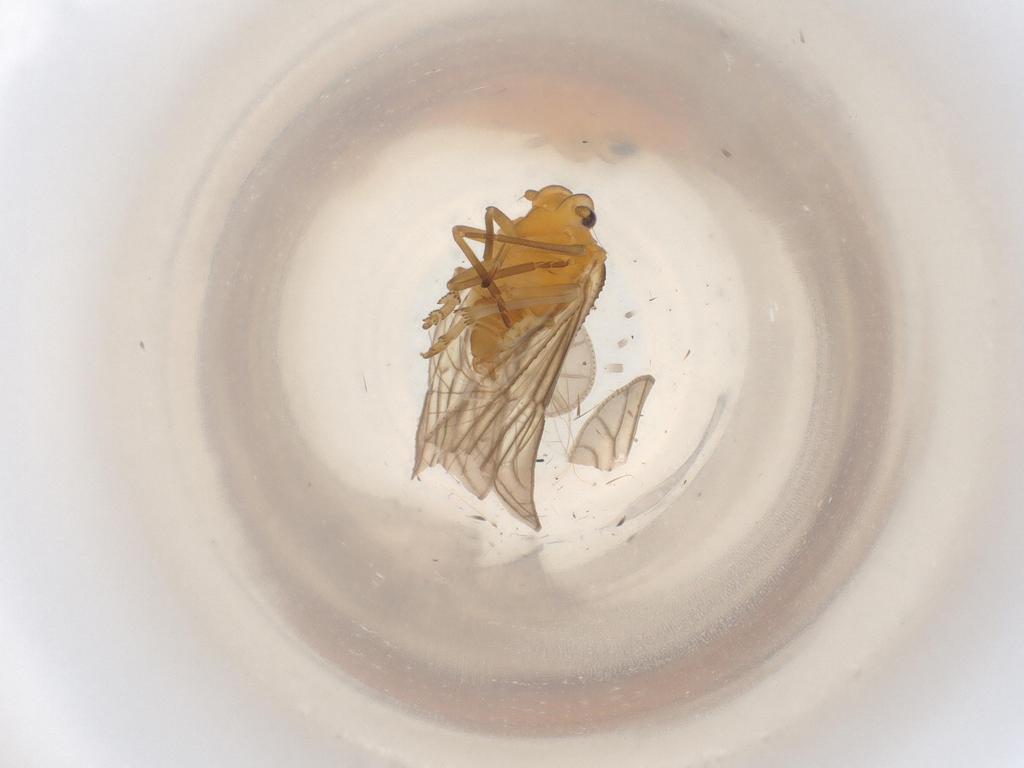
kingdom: Animalia
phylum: Arthropoda
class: Insecta
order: Hemiptera
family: Meenoplidae
